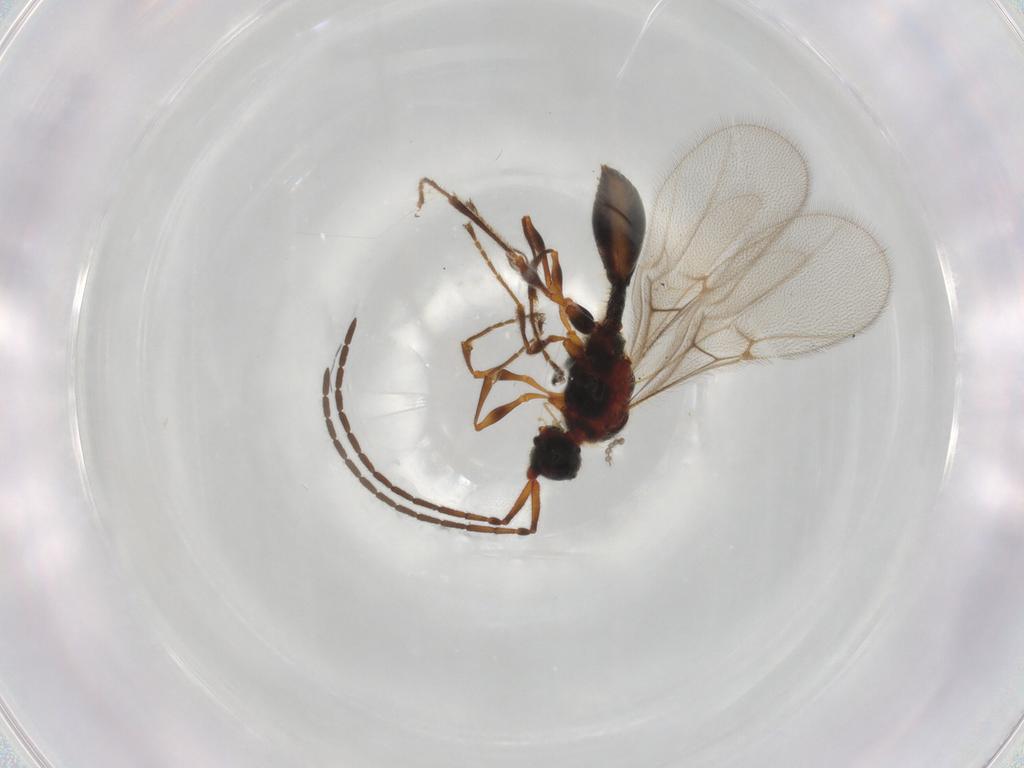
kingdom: Animalia
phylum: Arthropoda
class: Insecta
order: Hymenoptera
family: Diapriidae
